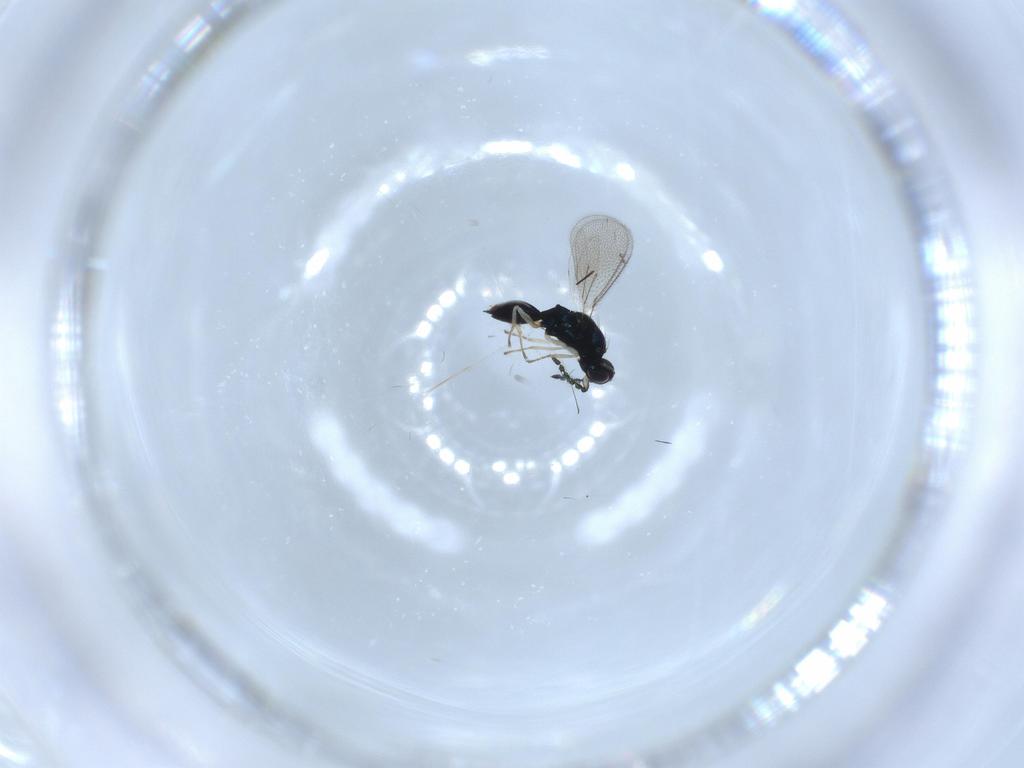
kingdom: Animalia
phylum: Arthropoda
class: Insecta
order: Hymenoptera
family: Eulophidae
